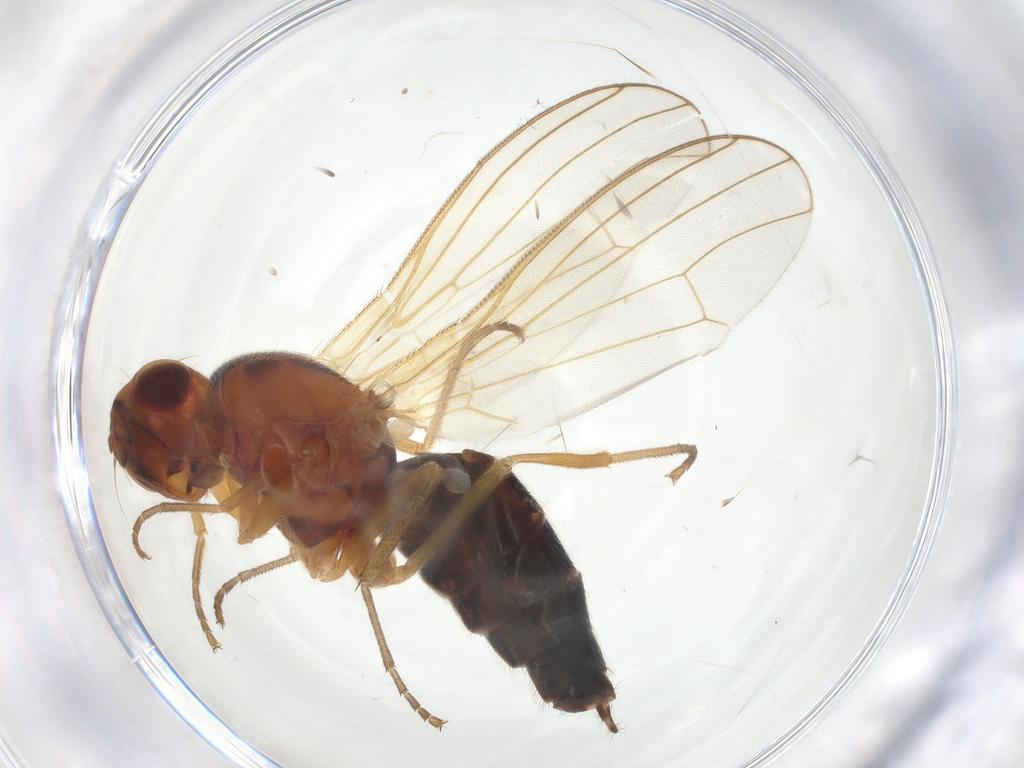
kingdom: Animalia
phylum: Arthropoda
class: Insecta
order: Diptera
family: Psilidae
